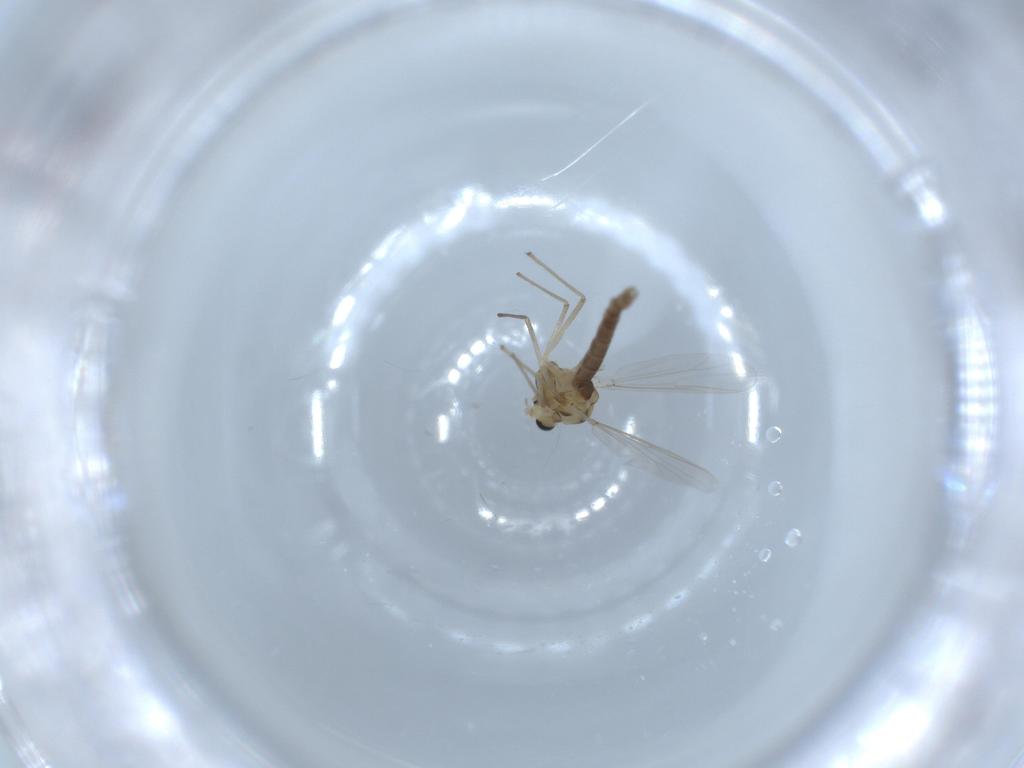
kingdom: Animalia
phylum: Arthropoda
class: Insecta
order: Diptera
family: Chironomidae
